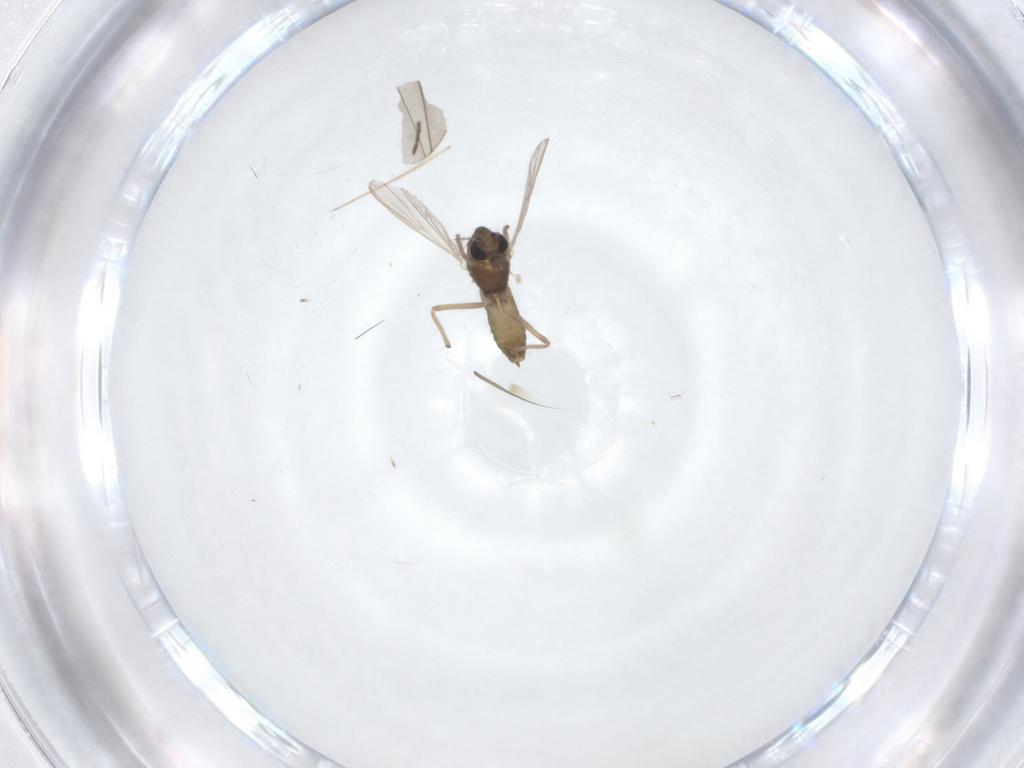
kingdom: Animalia
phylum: Arthropoda
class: Insecta
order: Diptera
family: Chironomidae
